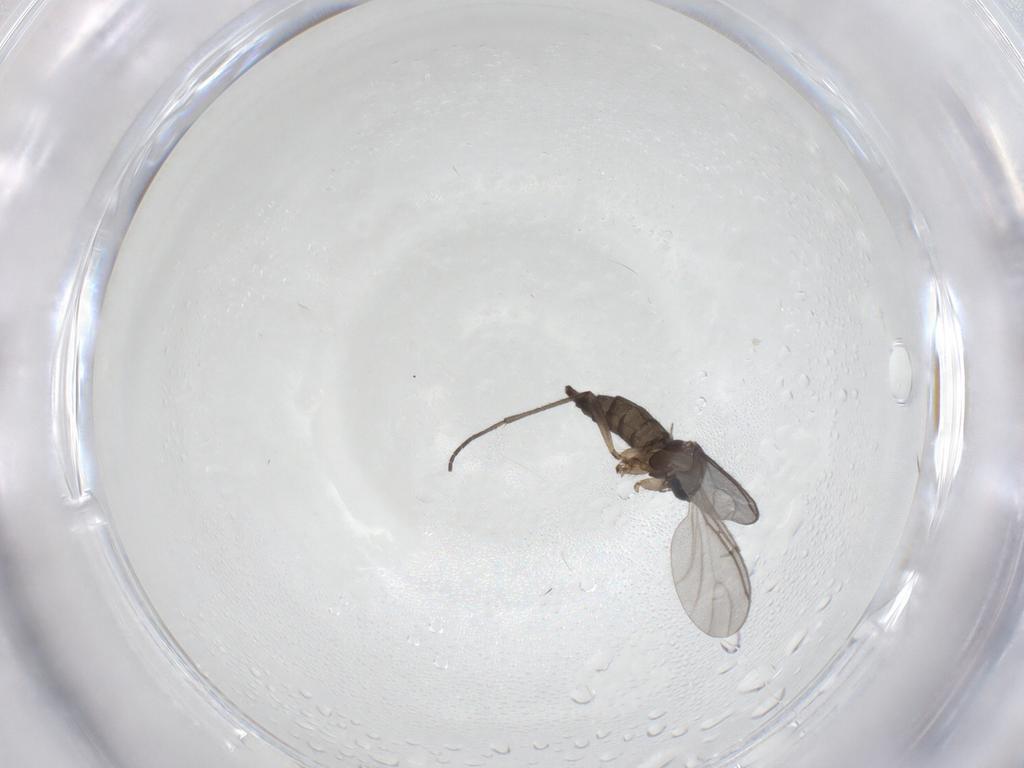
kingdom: Animalia
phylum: Arthropoda
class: Insecta
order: Diptera
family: Sciaridae
